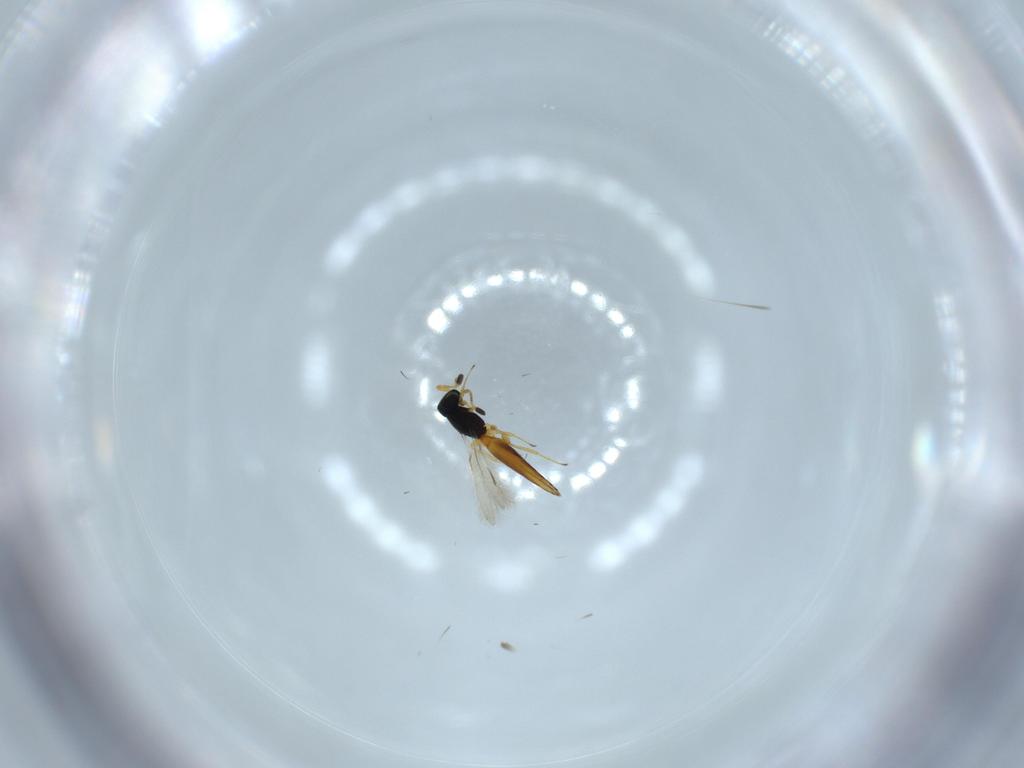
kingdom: Animalia
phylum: Arthropoda
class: Insecta
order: Hymenoptera
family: Scelionidae
